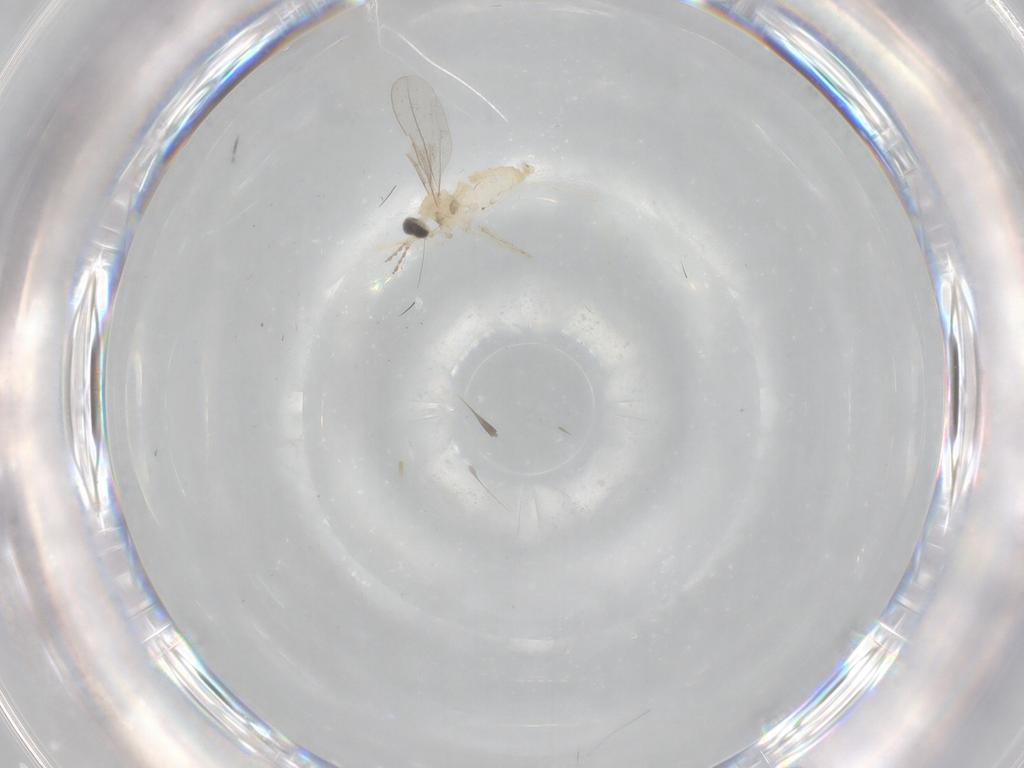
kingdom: Animalia
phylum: Arthropoda
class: Insecta
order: Diptera
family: Cecidomyiidae
